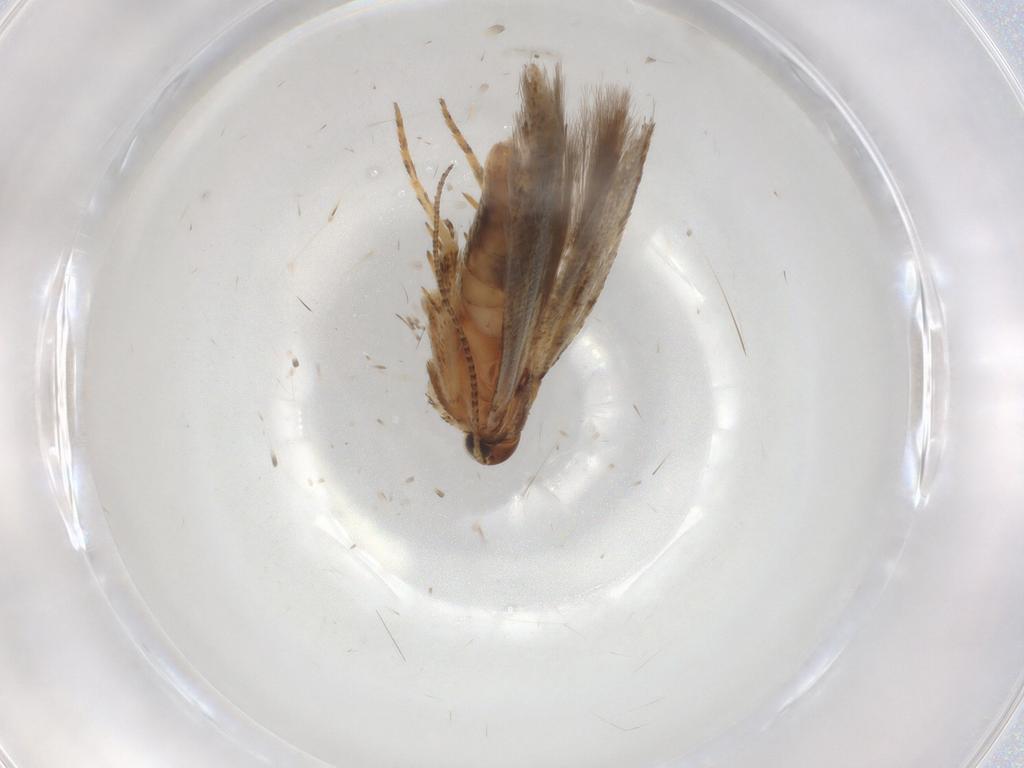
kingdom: Animalia
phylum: Arthropoda
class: Insecta
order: Lepidoptera
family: Gelechiidae
